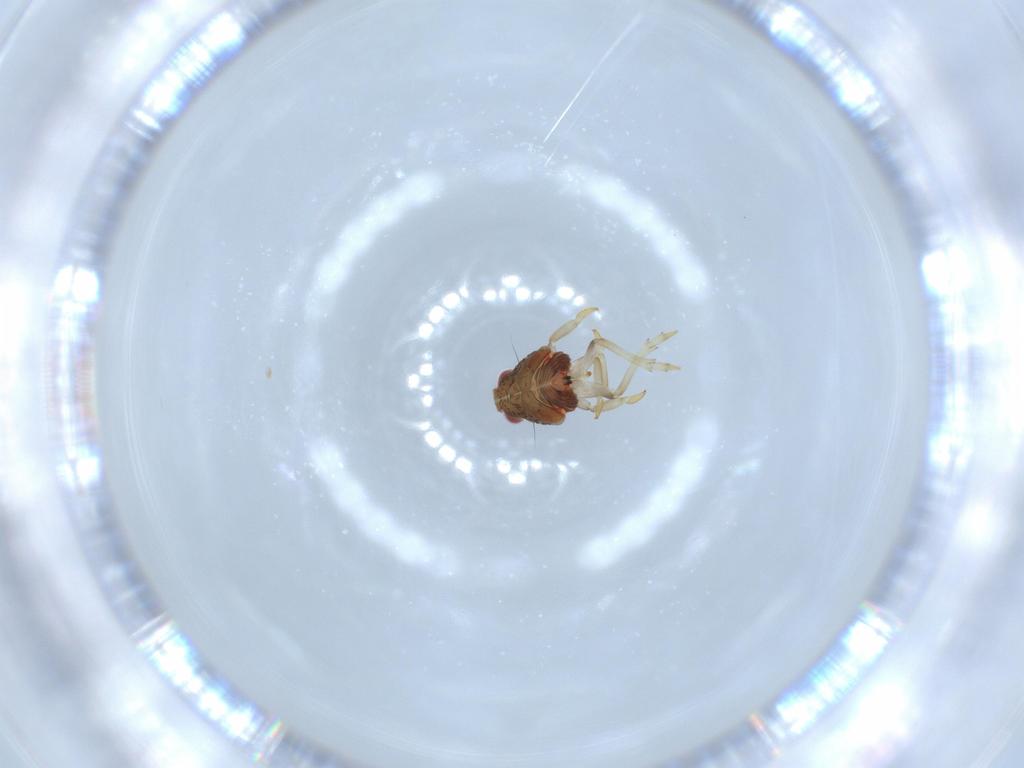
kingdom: Animalia
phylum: Arthropoda
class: Insecta
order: Hemiptera
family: Issidae
